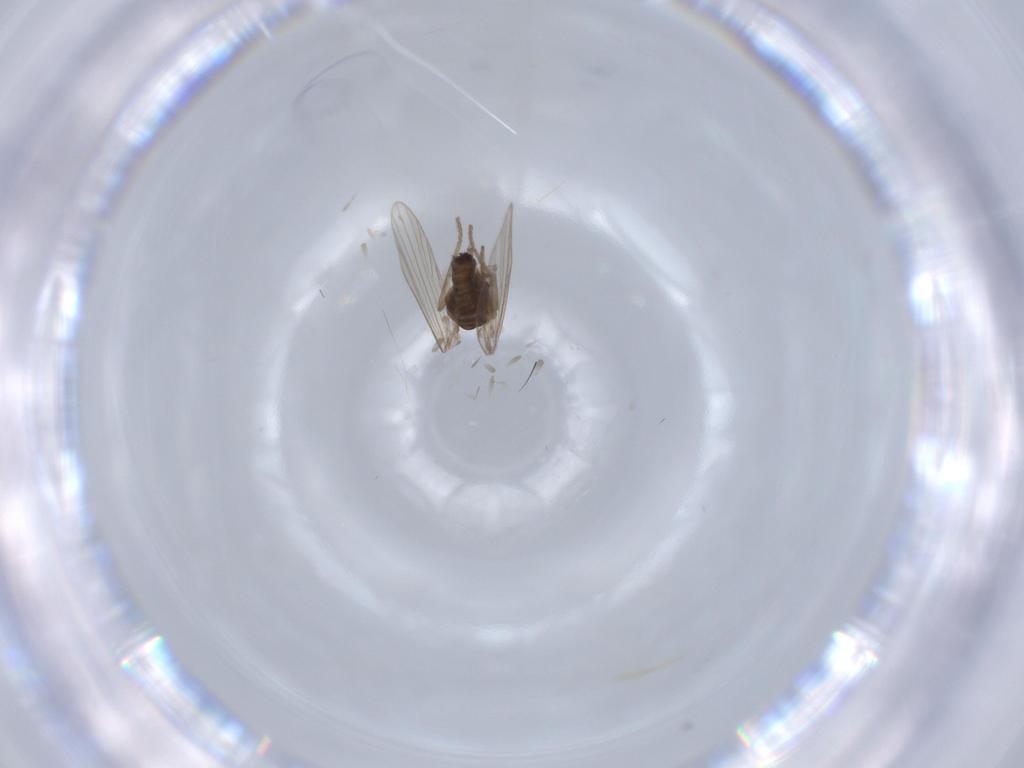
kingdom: Animalia
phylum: Arthropoda
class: Insecta
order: Diptera
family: Psychodidae
